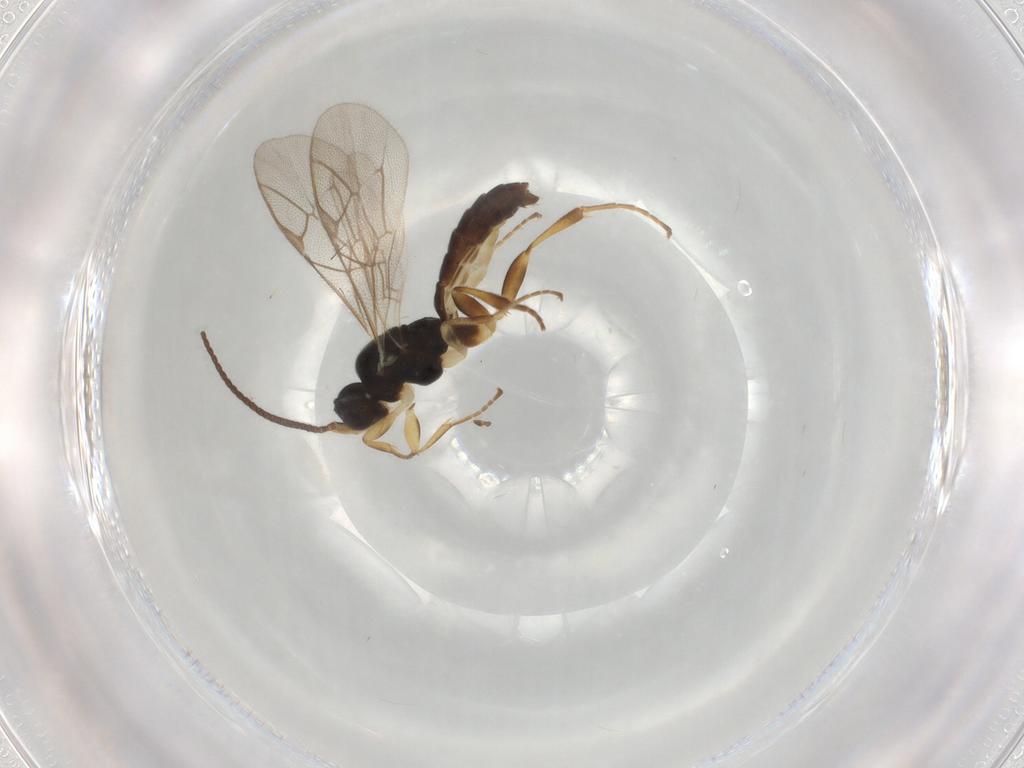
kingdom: Animalia
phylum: Arthropoda
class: Insecta
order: Hymenoptera
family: Ichneumonidae
